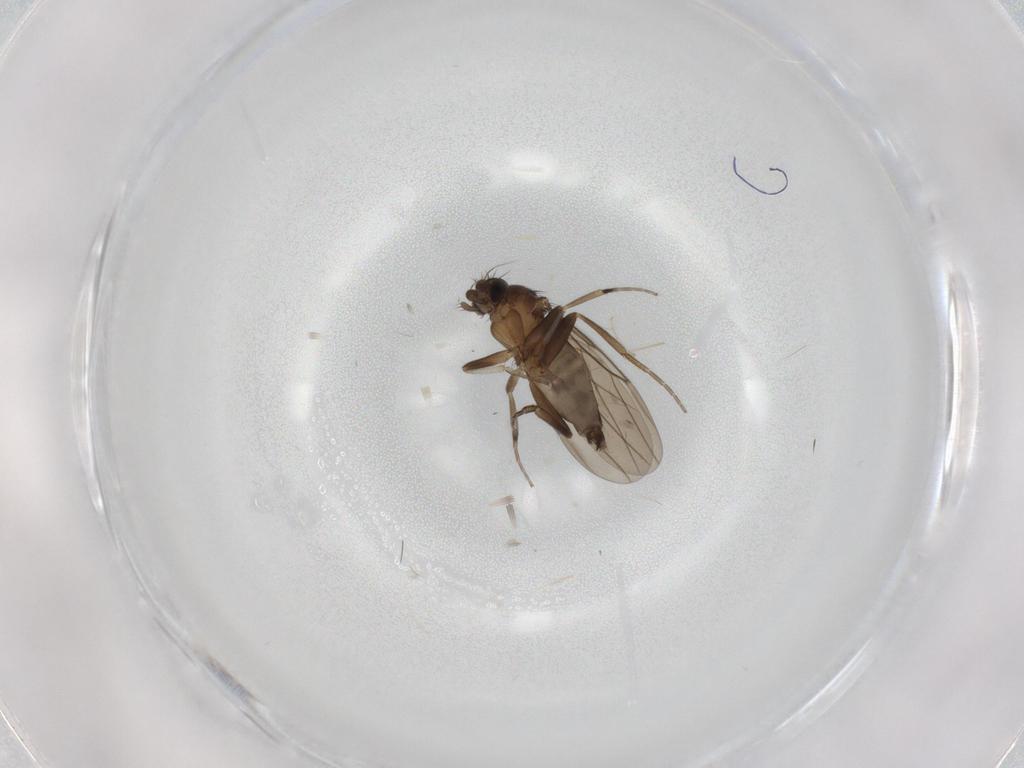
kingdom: Animalia
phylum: Arthropoda
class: Insecta
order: Diptera
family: Phoridae
